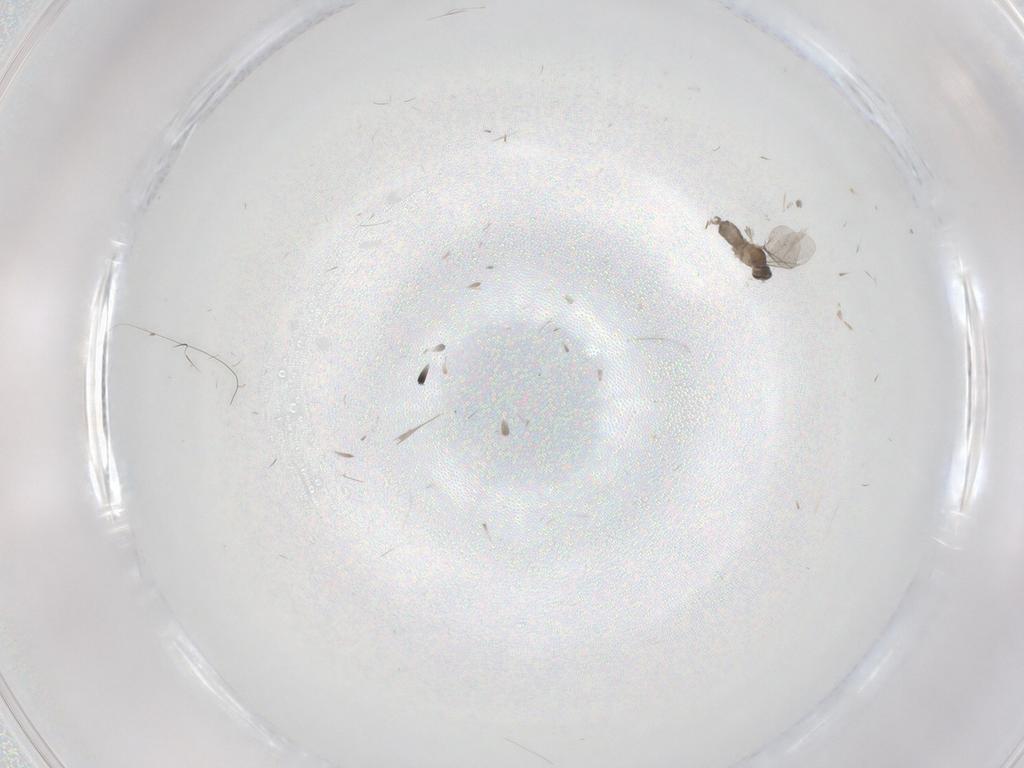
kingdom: Animalia
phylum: Arthropoda
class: Insecta
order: Diptera
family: Cecidomyiidae
